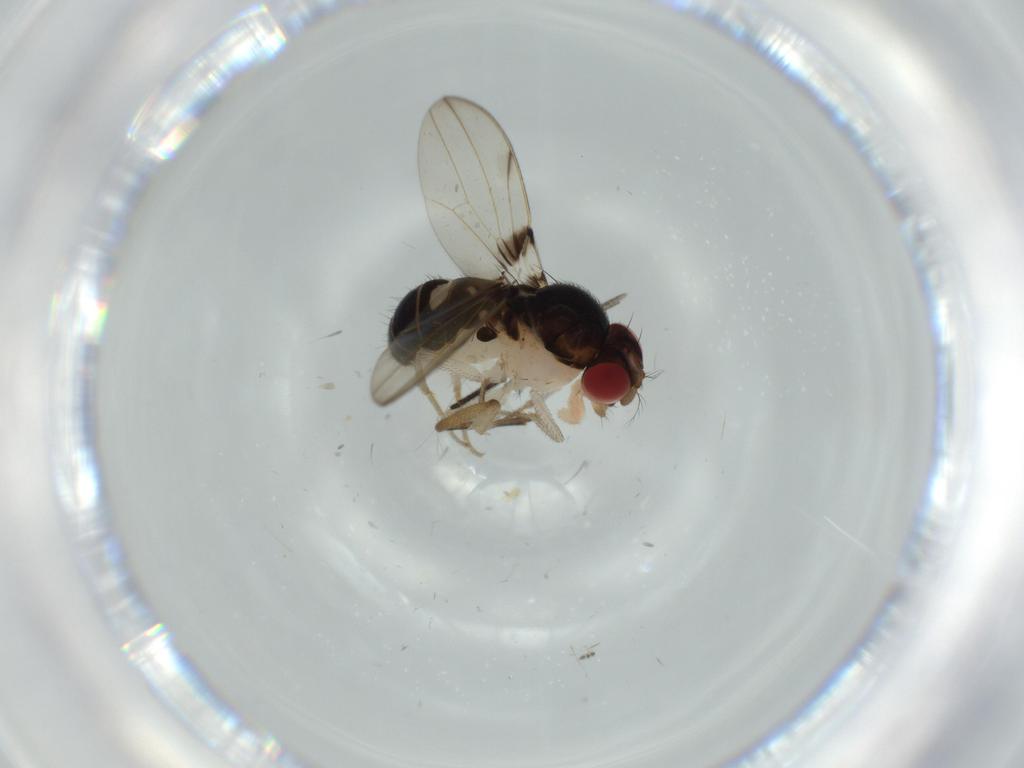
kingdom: Animalia
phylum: Arthropoda
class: Insecta
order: Diptera
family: Drosophilidae
